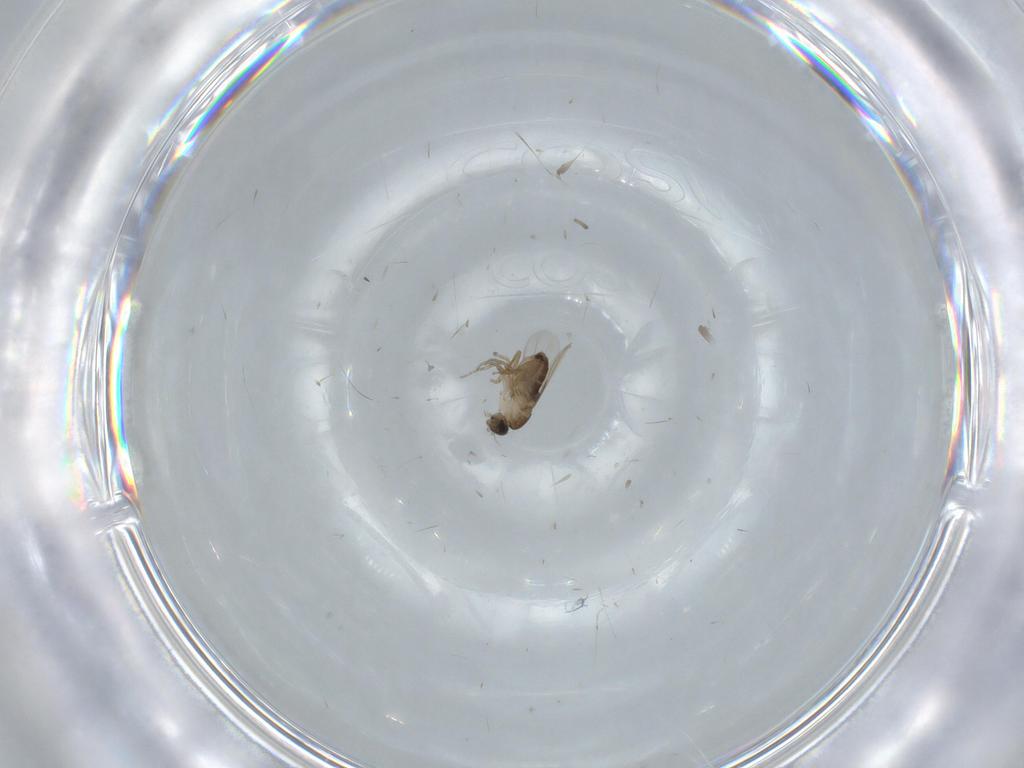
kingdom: Animalia
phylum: Arthropoda
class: Insecta
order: Diptera
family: Phoridae
